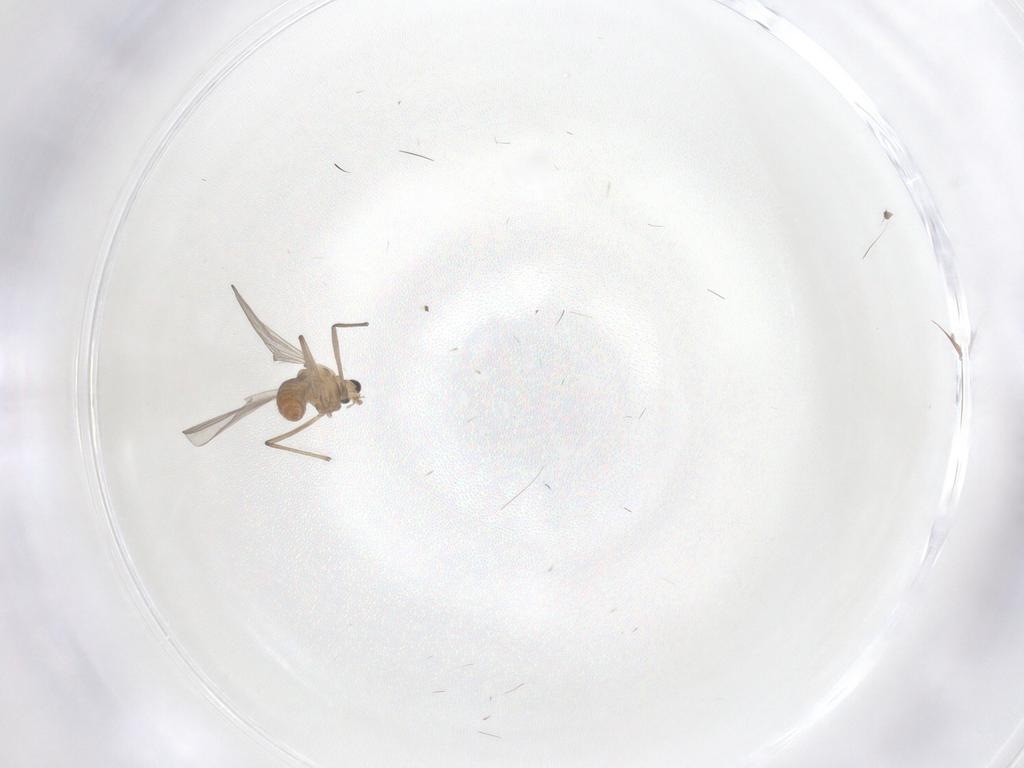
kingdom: Animalia
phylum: Arthropoda
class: Insecta
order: Diptera
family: Chironomidae
